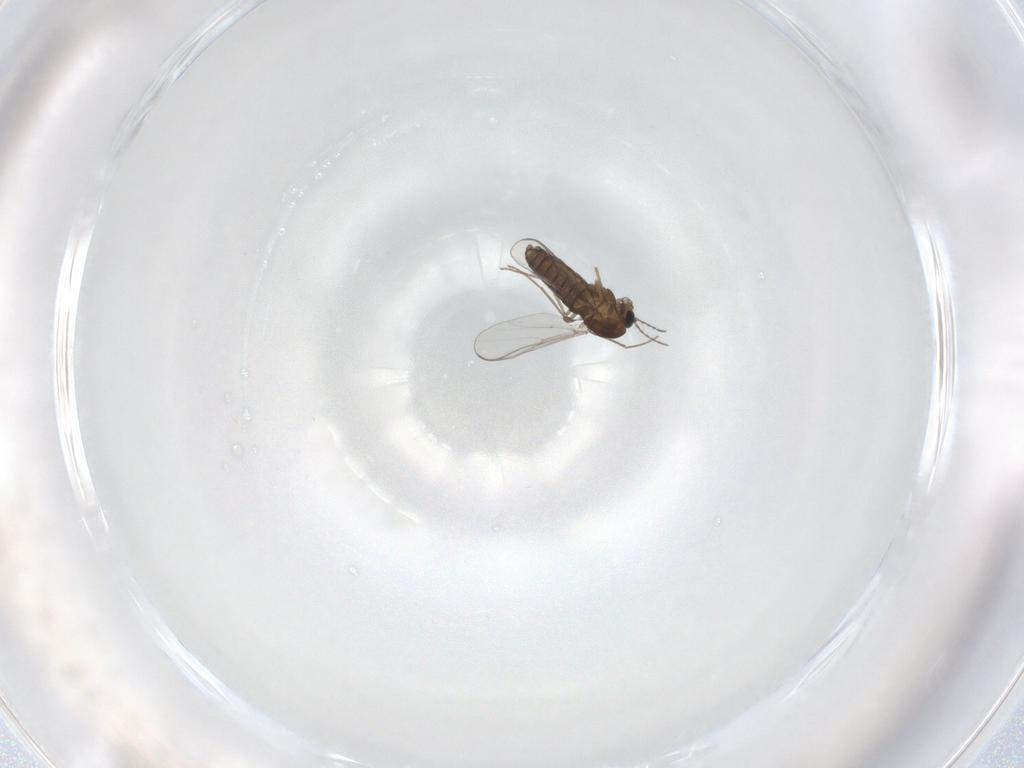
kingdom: Animalia
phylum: Arthropoda
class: Insecta
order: Diptera
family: Chironomidae
